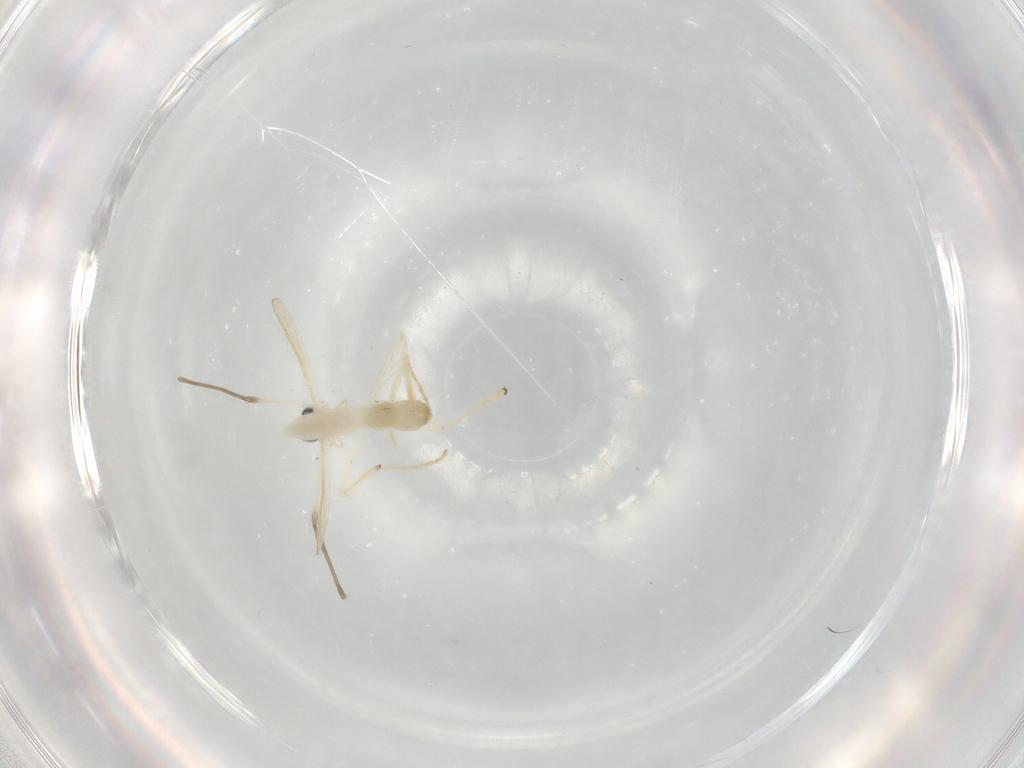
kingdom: Animalia
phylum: Arthropoda
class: Insecta
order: Diptera
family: Chironomidae
